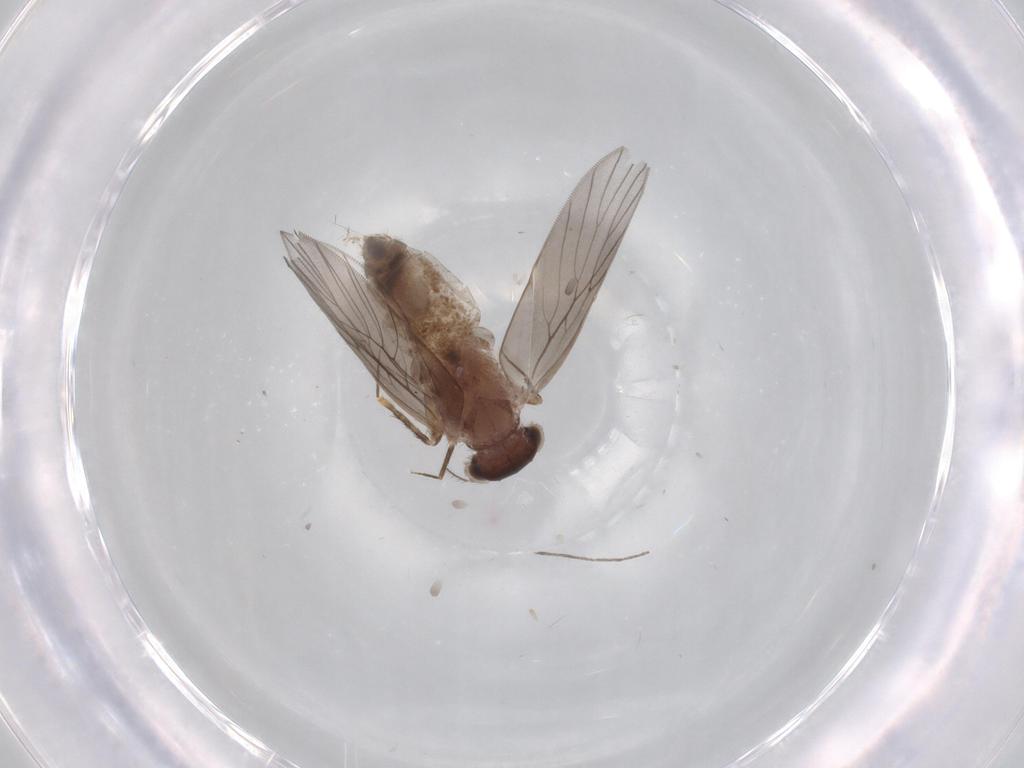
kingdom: Animalia
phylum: Arthropoda
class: Insecta
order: Psocodea
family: Lepidopsocidae
